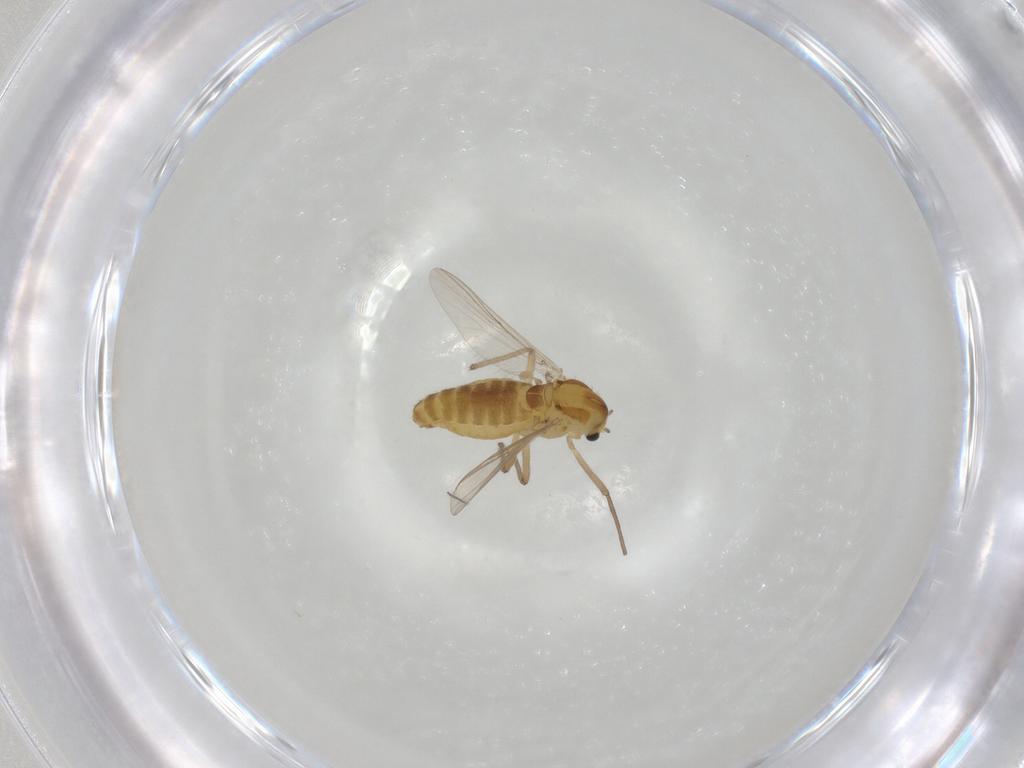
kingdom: Animalia
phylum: Arthropoda
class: Insecta
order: Diptera
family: Chironomidae
